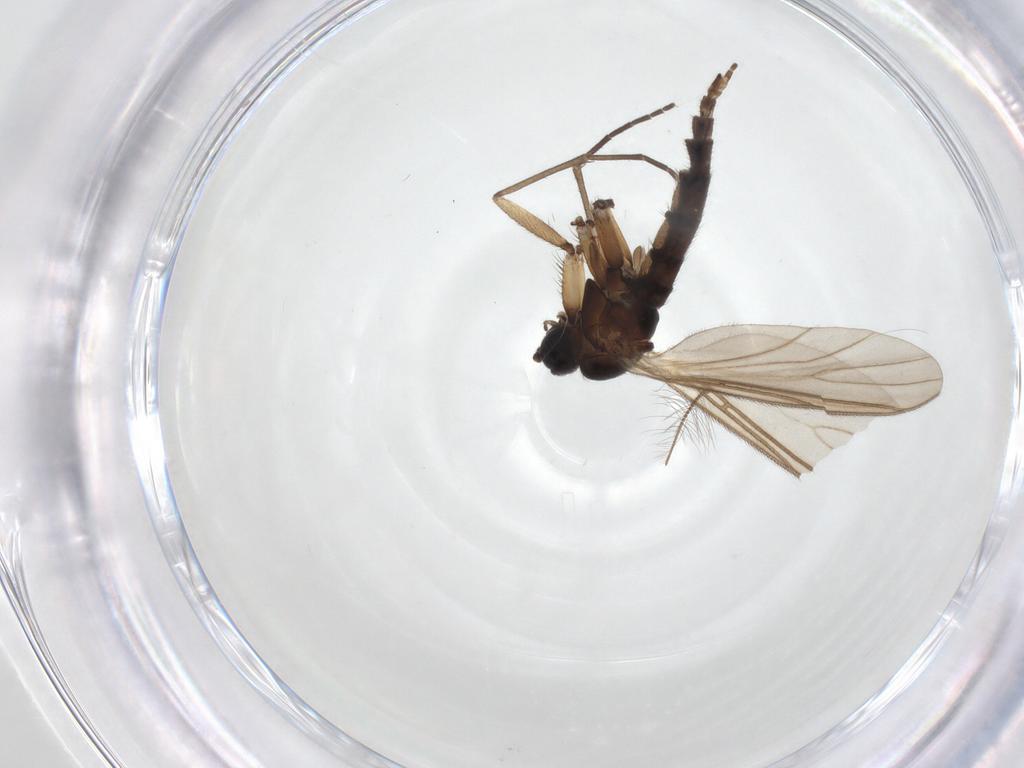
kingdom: Animalia
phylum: Arthropoda
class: Insecta
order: Diptera
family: Sciaridae
